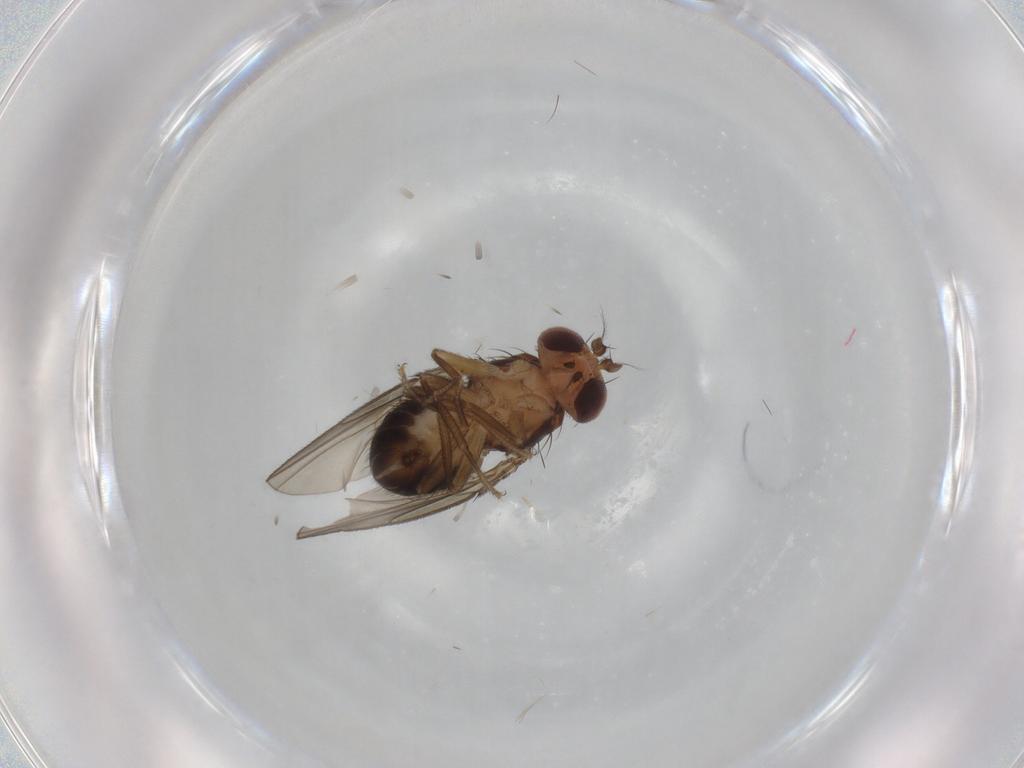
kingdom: Animalia
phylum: Arthropoda
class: Insecta
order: Diptera
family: Drosophilidae
